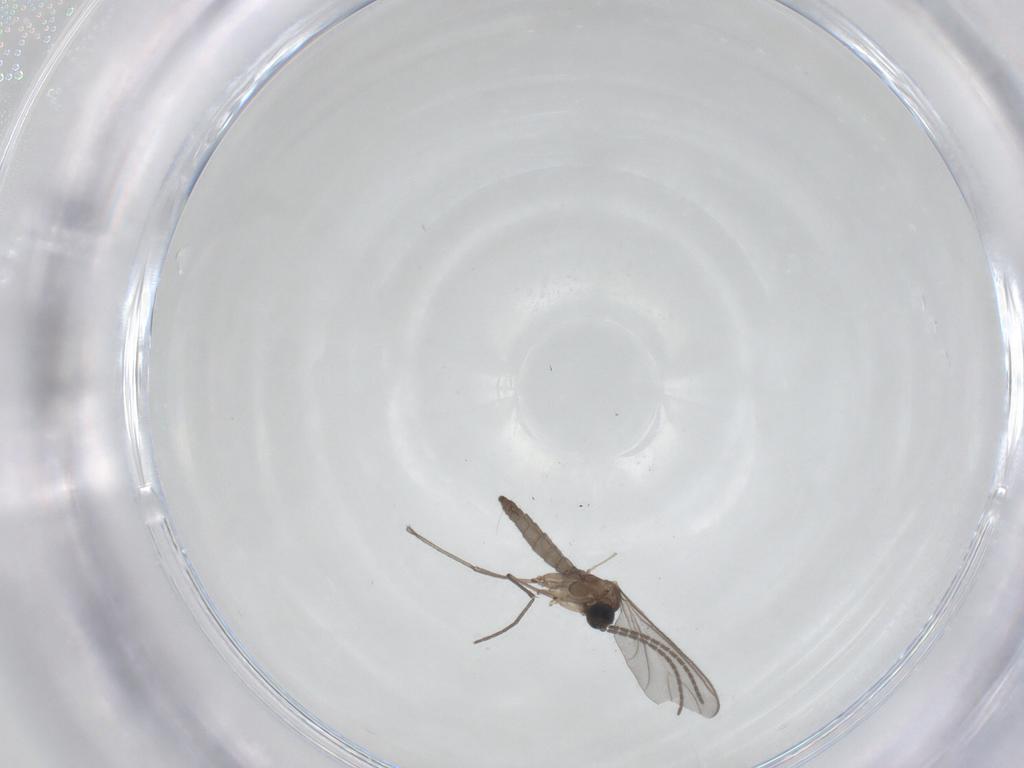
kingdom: Animalia
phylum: Arthropoda
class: Insecta
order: Diptera
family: Sciaridae
